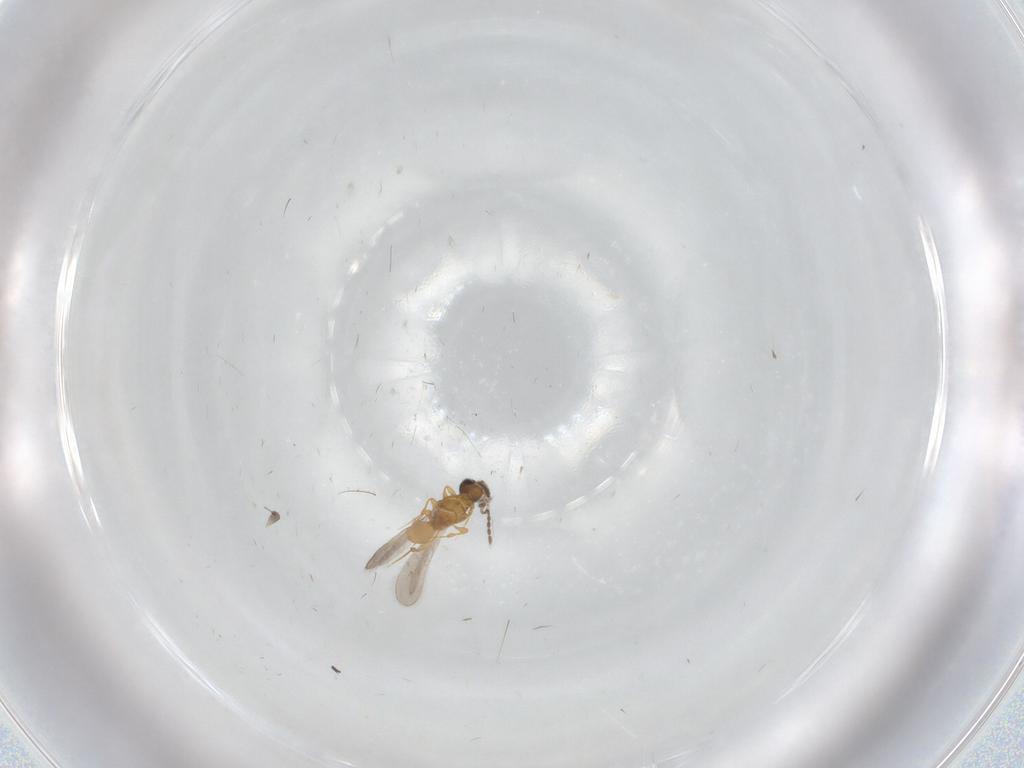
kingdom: Animalia
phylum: Arthropoda
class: Insecta
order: Hymenoptera
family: Platygastridae
